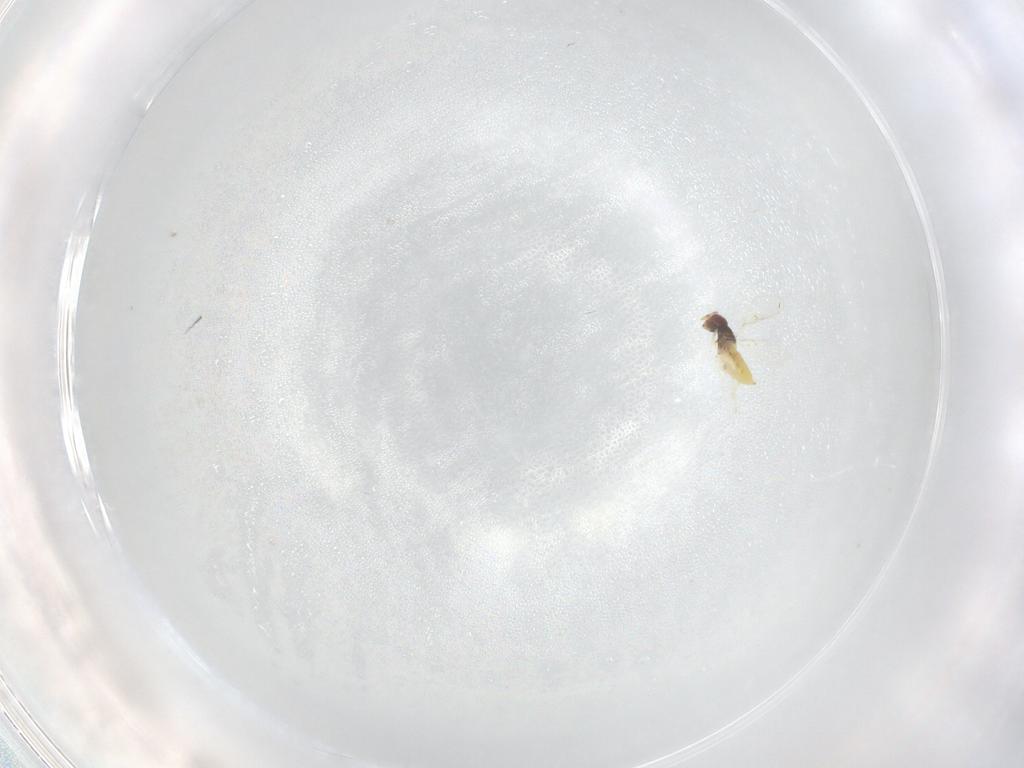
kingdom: Animalia
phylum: Arthropoda
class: Insecta
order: Hymenoptera
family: Trichogrammatidae
